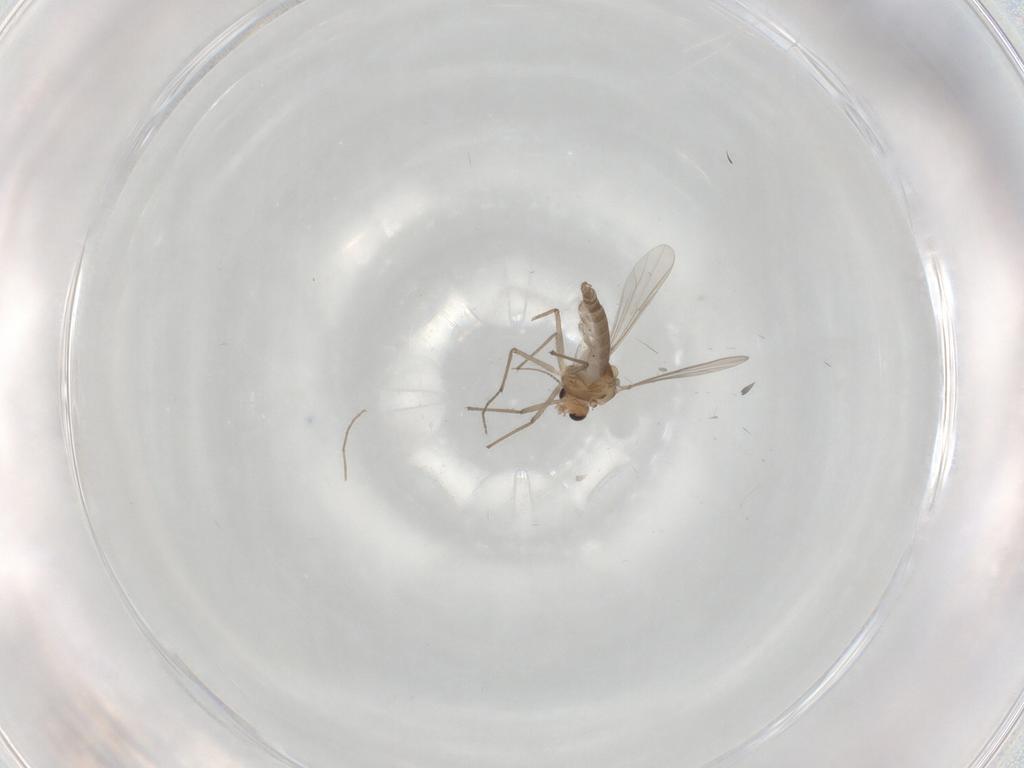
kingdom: Animalia
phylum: Arthropoda
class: Insecta
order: Diptera
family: Chironomidae
